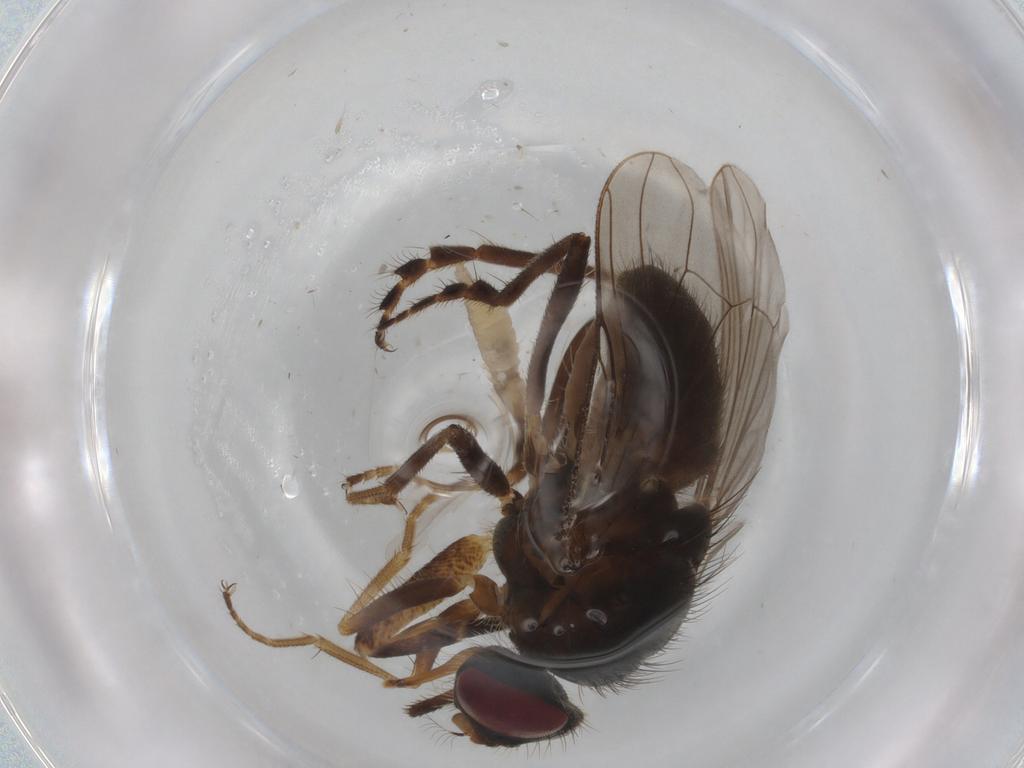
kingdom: Animalia
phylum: Arthropoda
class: Insecta
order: Diptera
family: Cecidomyiidae
